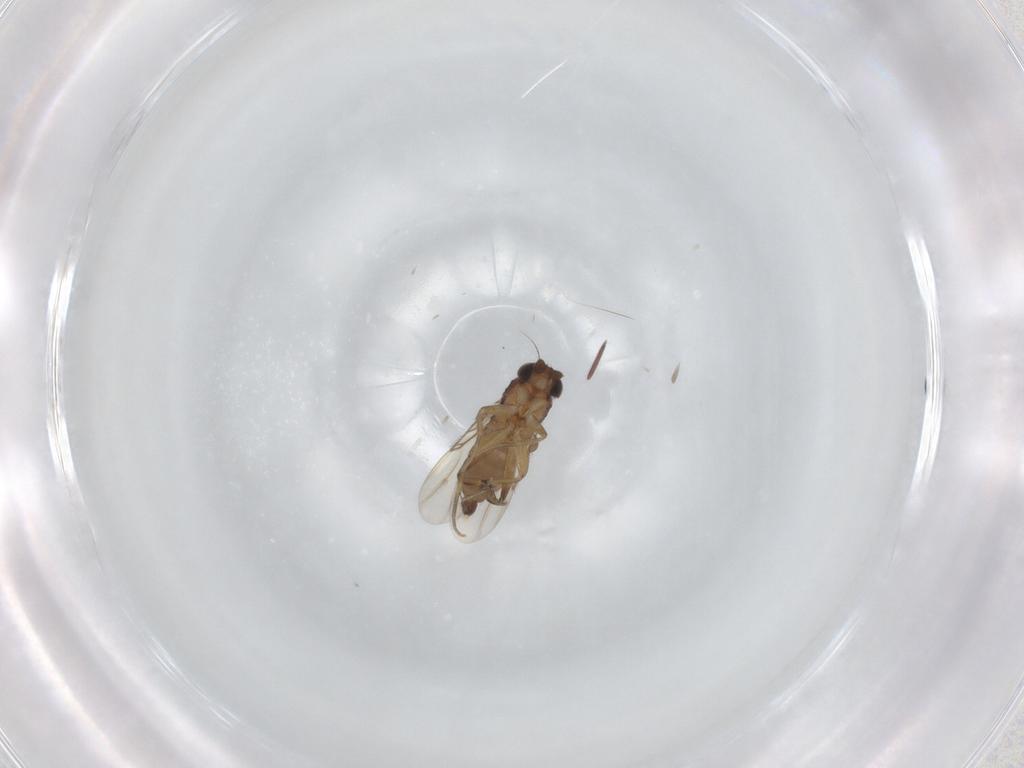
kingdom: Animalia
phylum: Arthropoda
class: Insecta
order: Diptera
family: Phoridae
